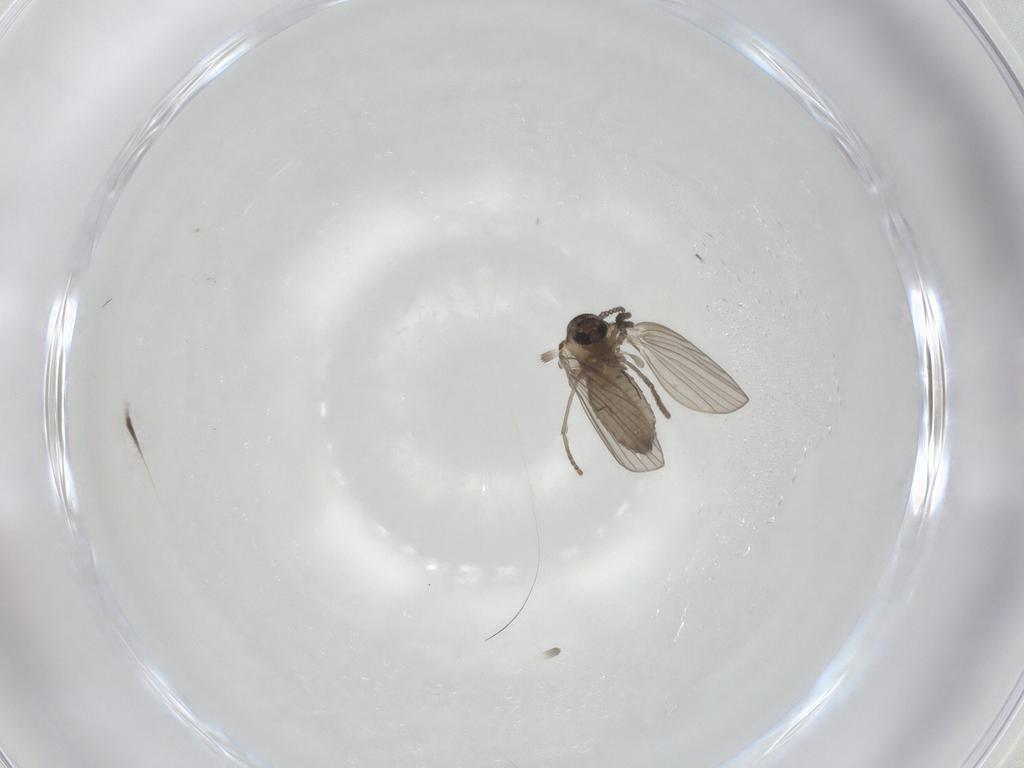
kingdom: Animalia
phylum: Arthropoda
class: Insecta
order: Diptera
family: Psychodidae
